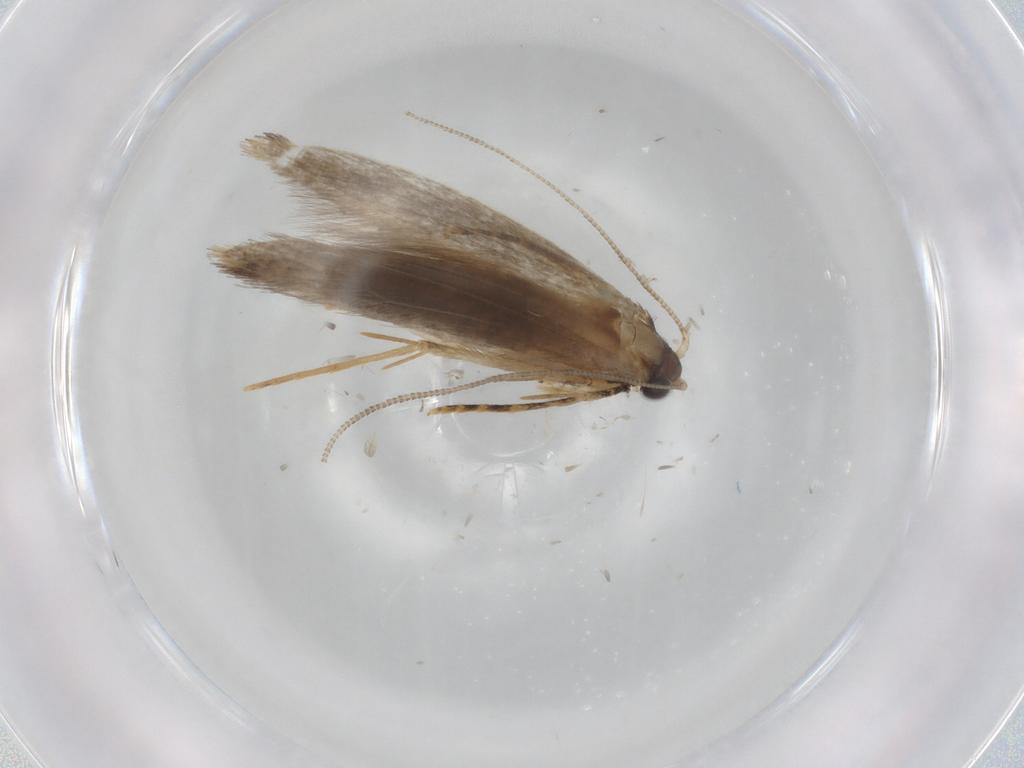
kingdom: Animalia
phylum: Arthropoda
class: Insecta
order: Lepidoptera
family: Tineidae
